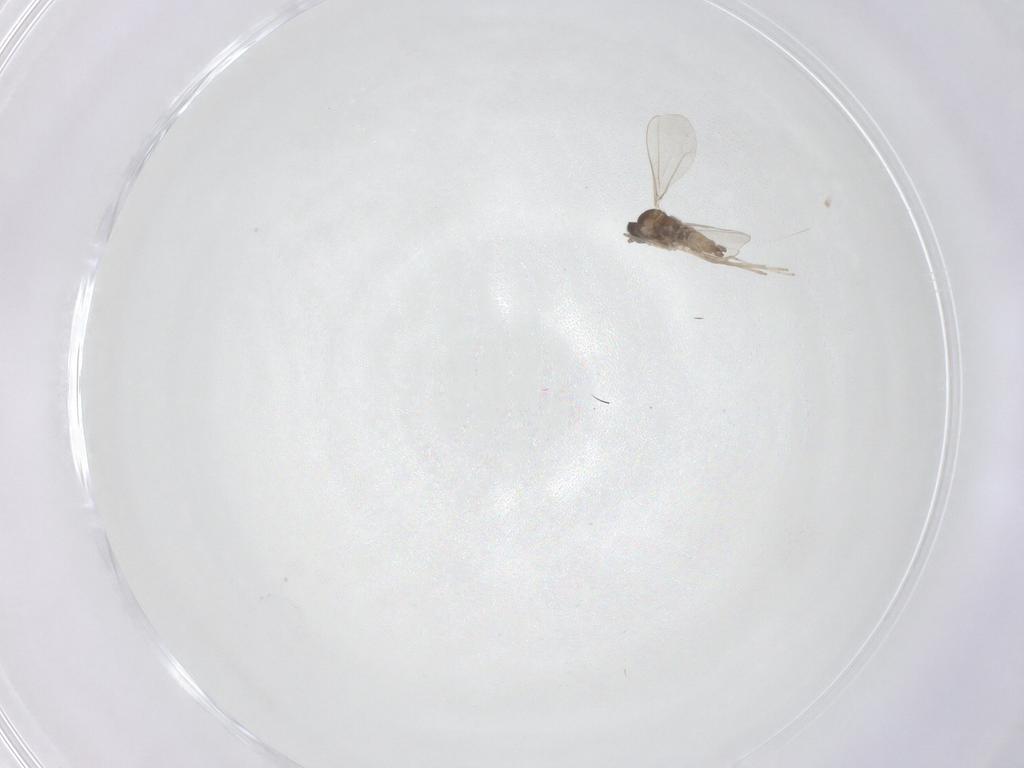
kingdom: Animalia
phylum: Arthropoda
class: Insecta
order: Diptera
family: Cecidomyiidae
